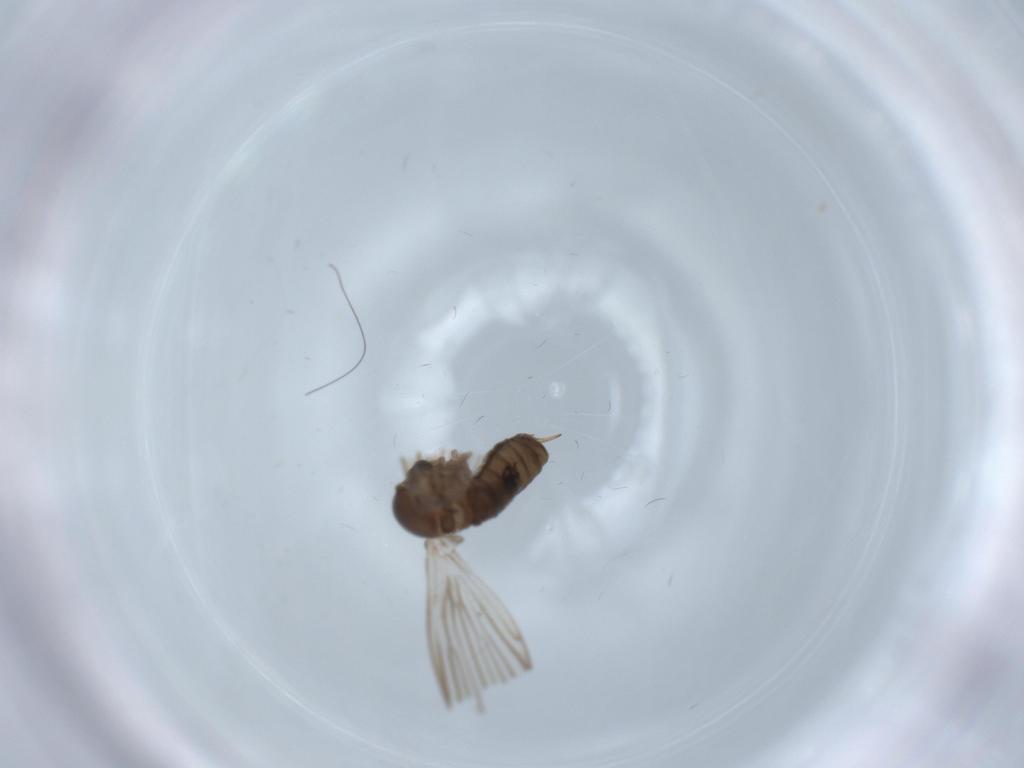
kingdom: Animalia
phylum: Arthropoda
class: Insecta
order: Diptera
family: Psychodidae
